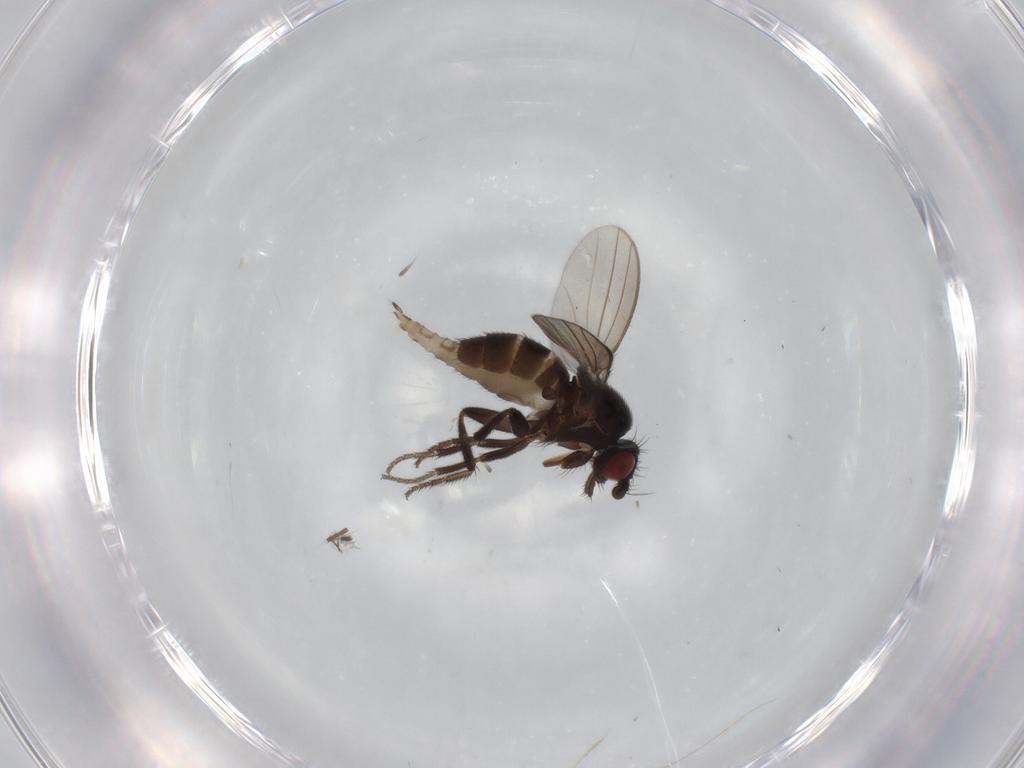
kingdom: Animalia
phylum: Arthropoda
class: Insecta
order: Diptera
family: Milichiidae
